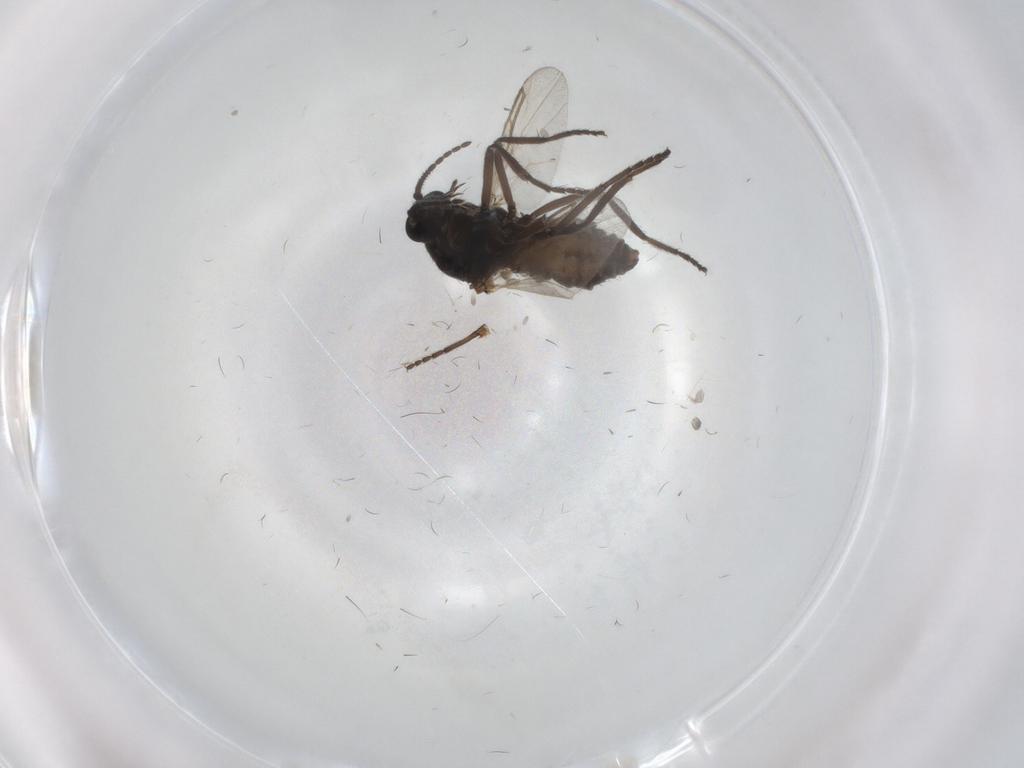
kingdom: Animalia
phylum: Arthropoda
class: Insecta
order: Diptera
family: Ceratopogonidae
